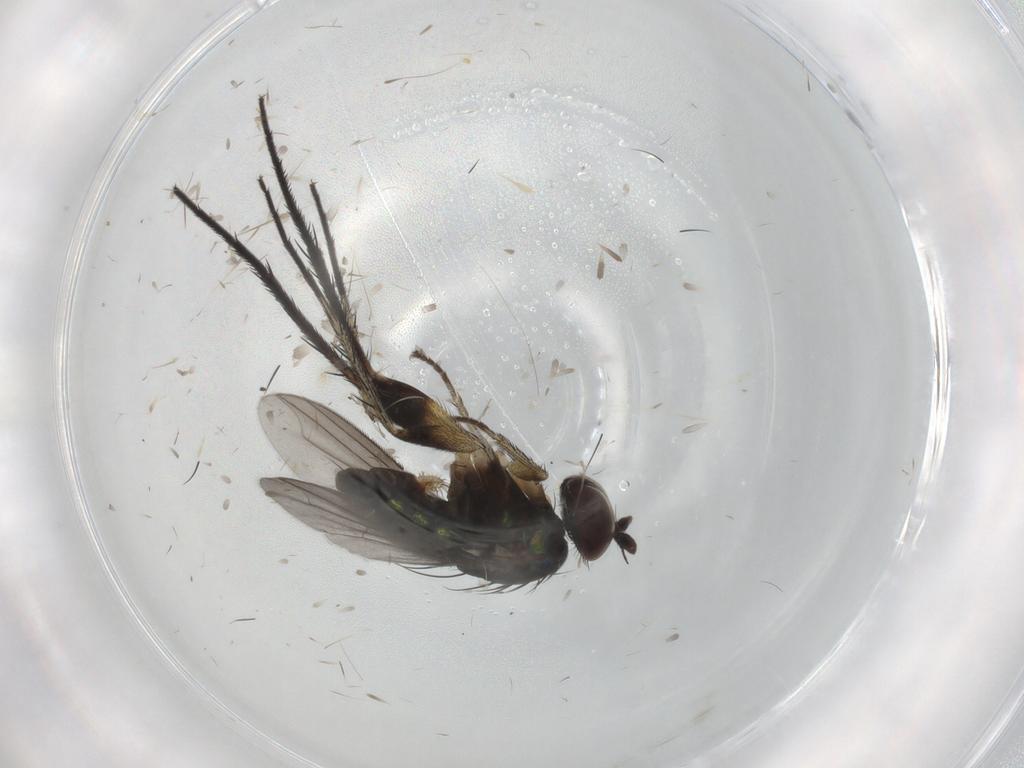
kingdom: Animalia
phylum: Arthropoda
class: Insecta
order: Diptera
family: Dolichopodidae
